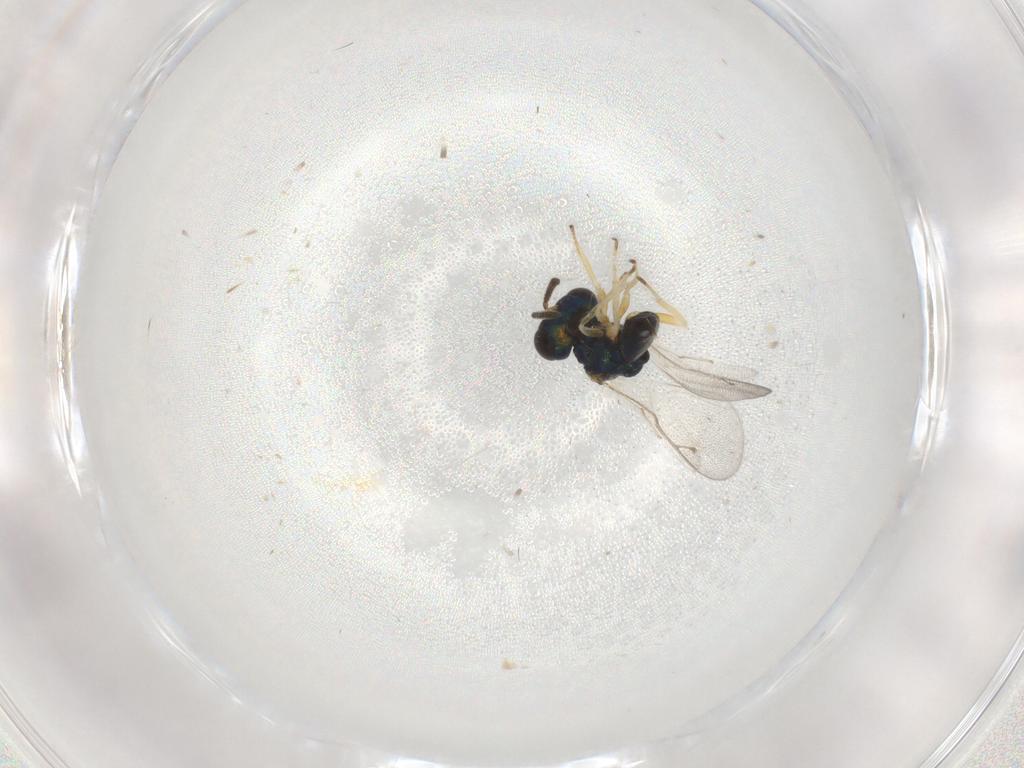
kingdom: Animalia
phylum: Arthropoda
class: Insecta
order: Hymenoptera
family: Pteromalidae
